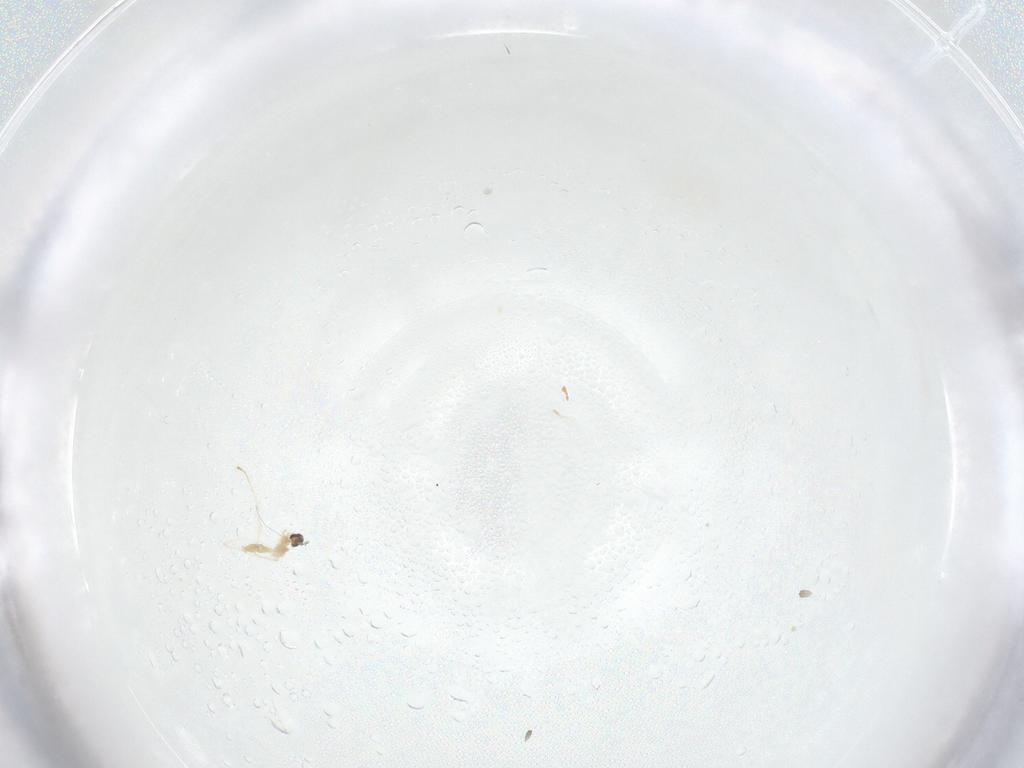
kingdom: Animalia
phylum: Arthropoda
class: Insecta
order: Diptera
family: Cecidomyiidae
